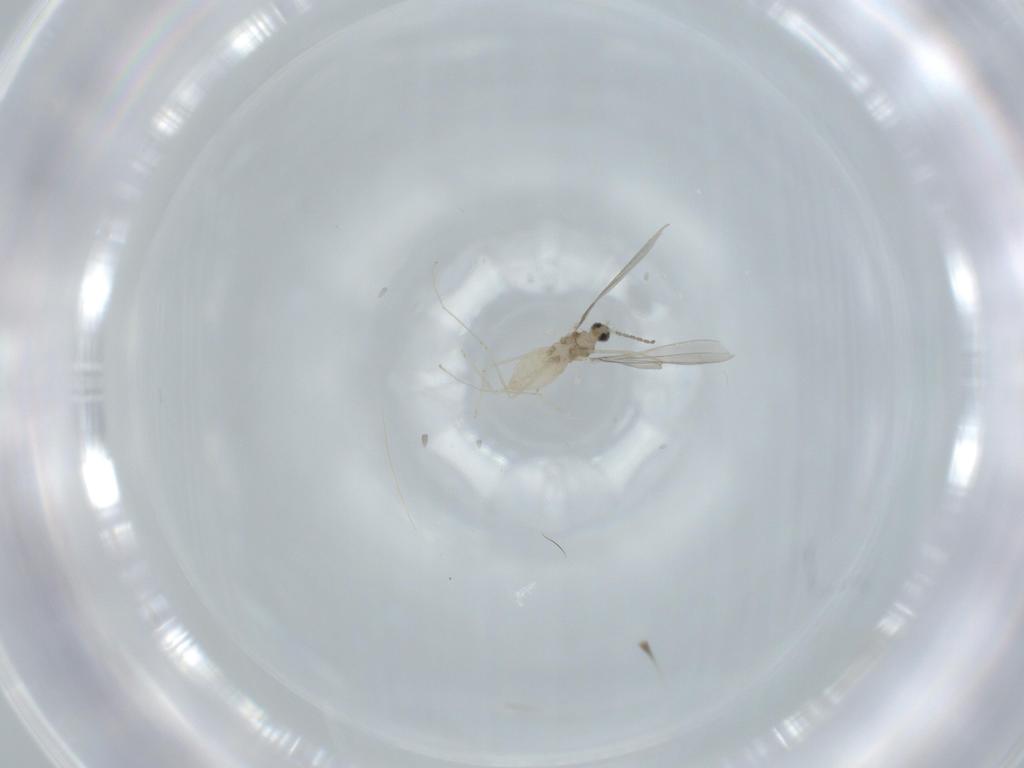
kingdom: Animalia
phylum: Arthropoda
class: Insecta
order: Diptera
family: Cecidomyiidae
